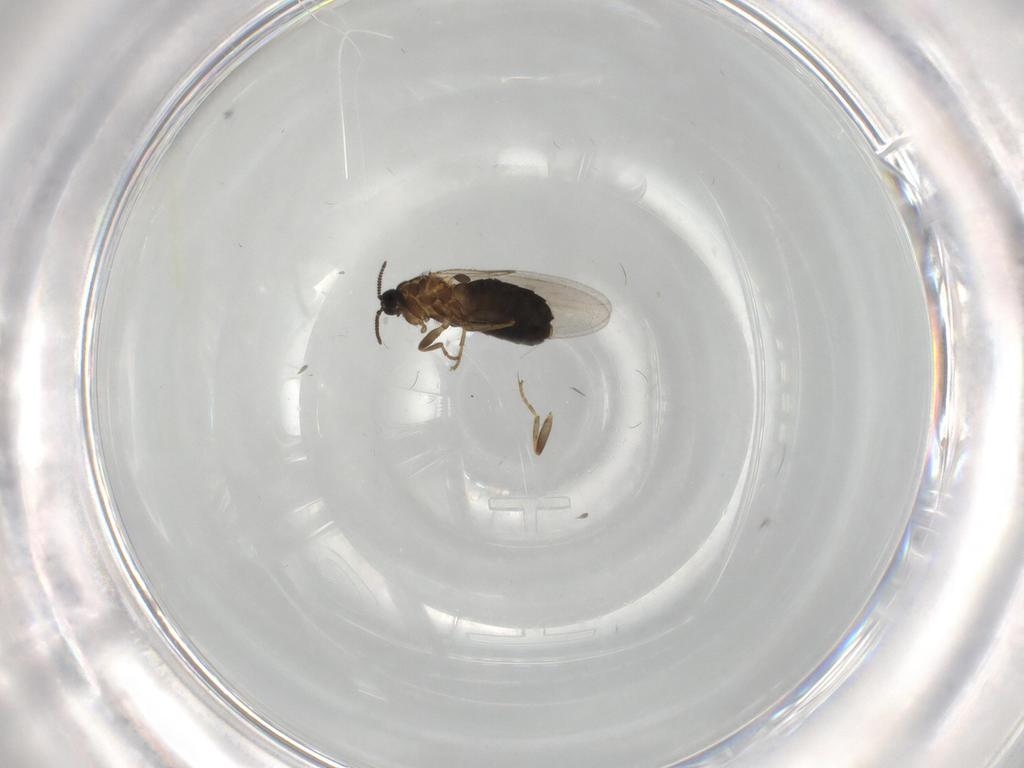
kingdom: Animalia
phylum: Arthropoda
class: Insecta
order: Diptera
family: Scatopsidae
